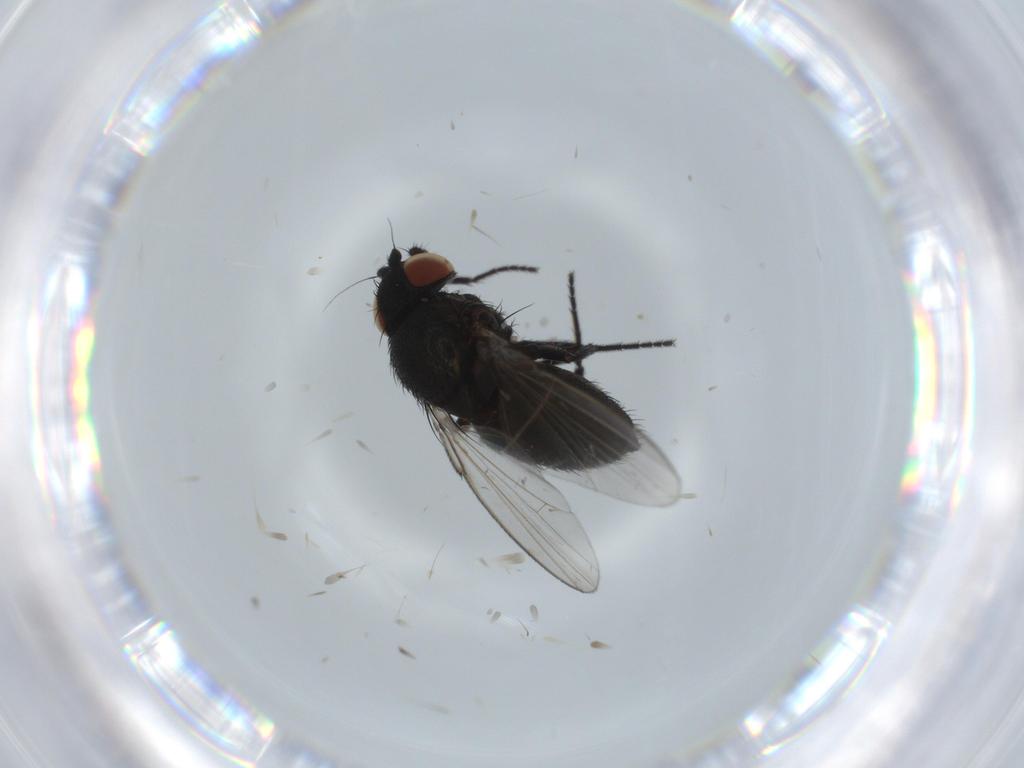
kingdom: Animalia
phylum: Arthropoda
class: Insecta
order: Diptera
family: Milichiidae
